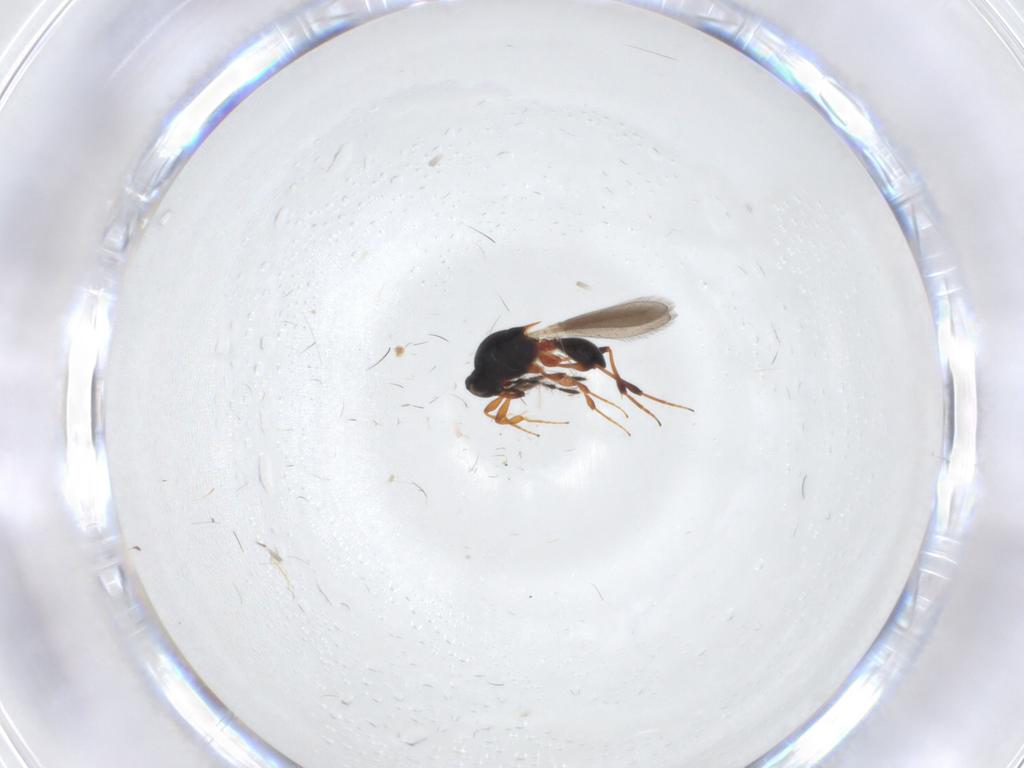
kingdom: Animalia
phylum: Arthropoda
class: Insecta
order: Hymenoptera
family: Platygastridae
